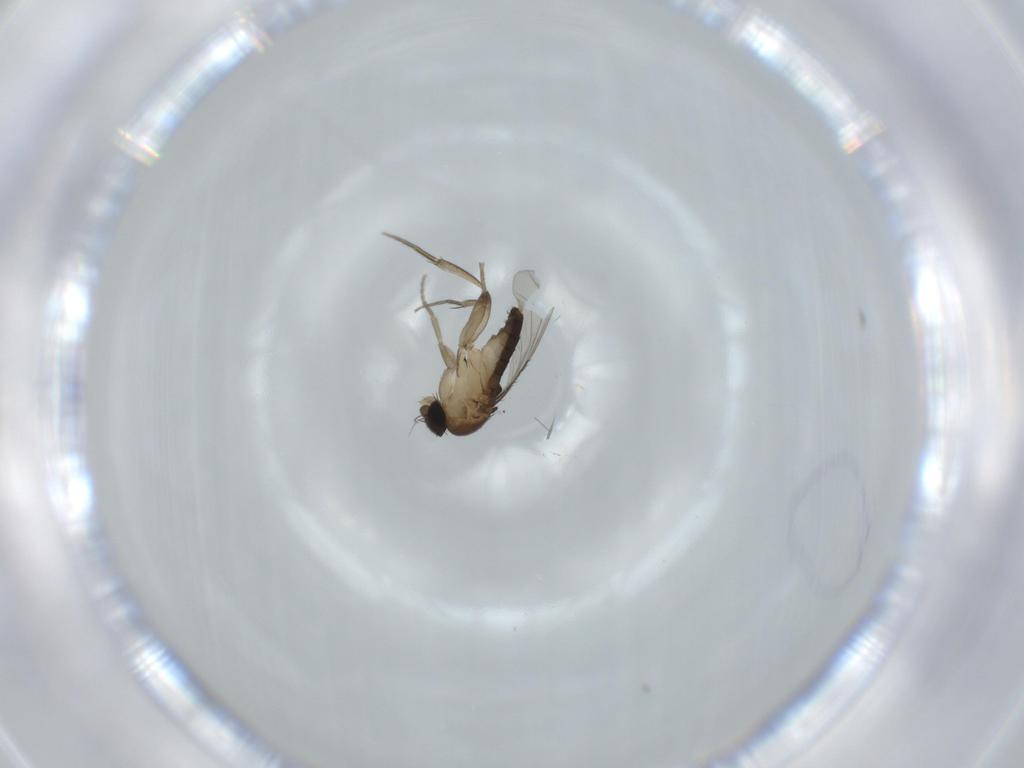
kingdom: Animalia
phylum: Arthropoda
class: Insecta
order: Diptera
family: Phoridae
